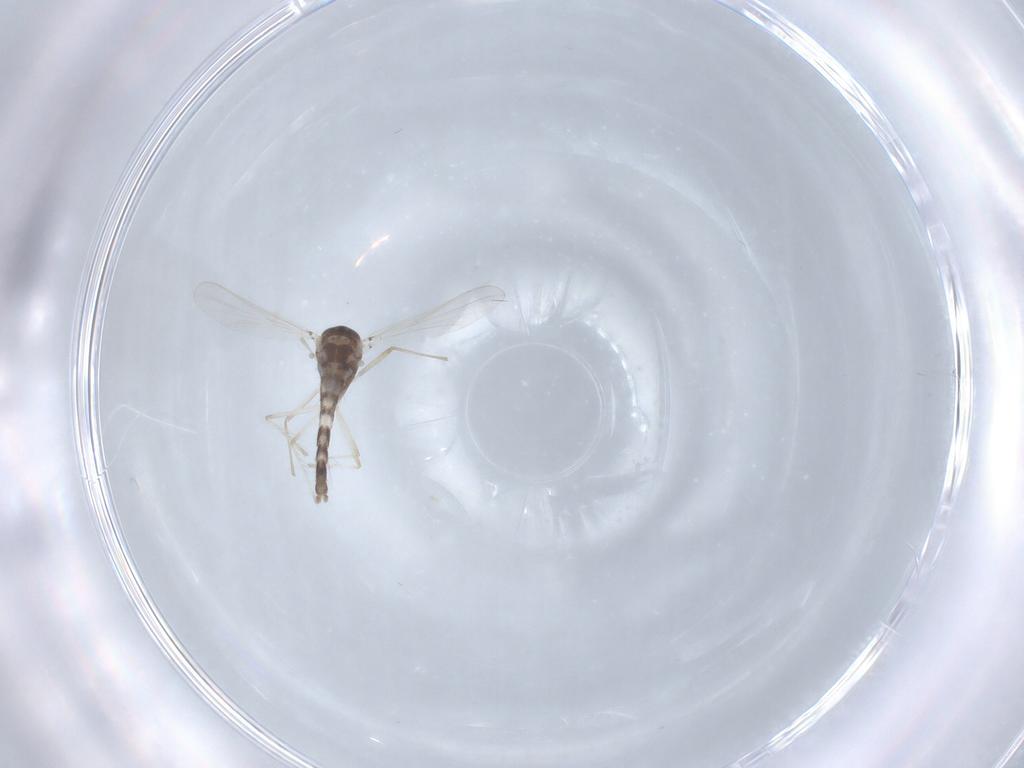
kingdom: Animalia
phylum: Arthropoda
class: Insecta
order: Diptera
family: Chironomidae
